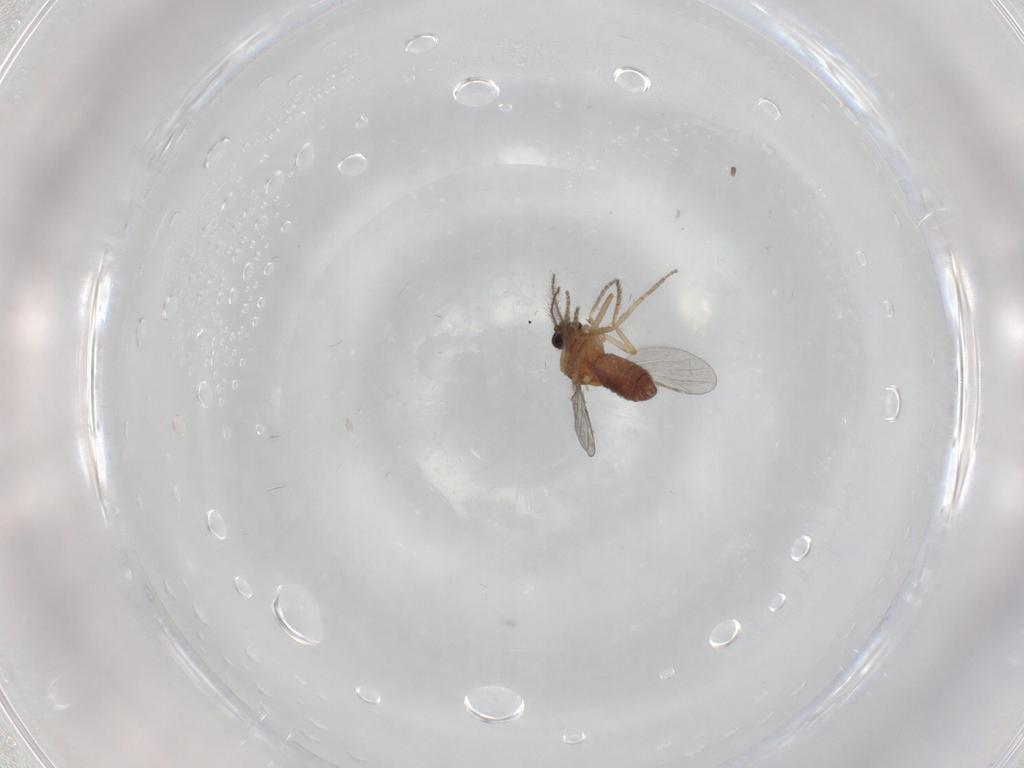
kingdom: Animalia
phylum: Arthropoda
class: Insecta
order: Diptera
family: Ceratopogonidae
